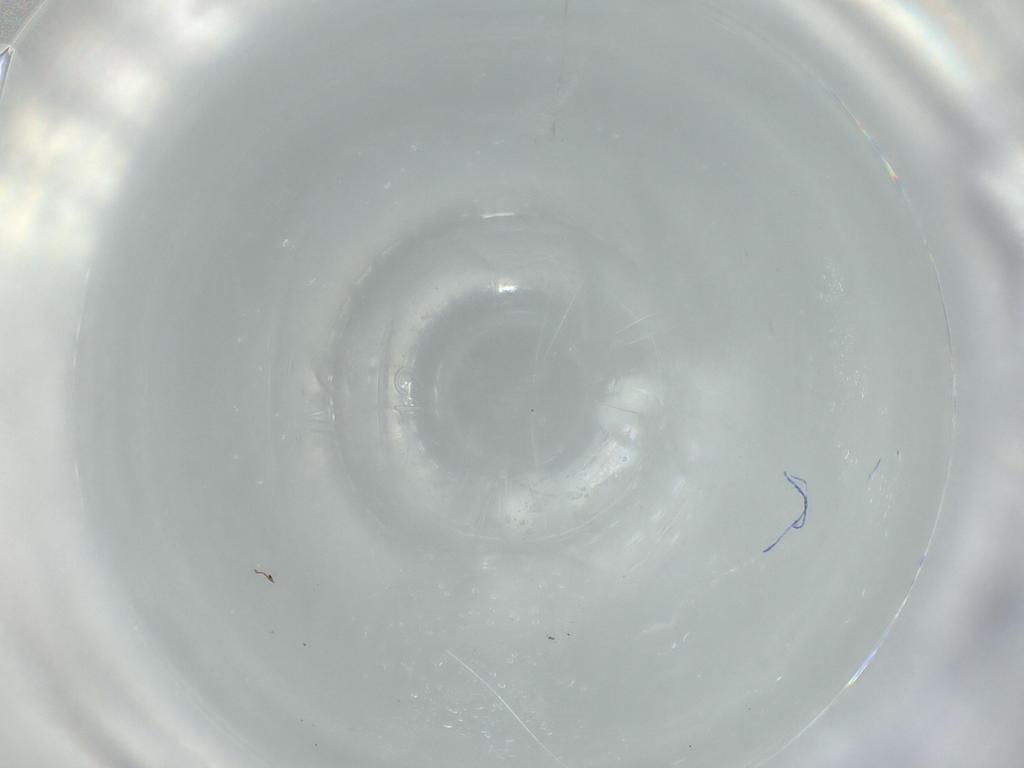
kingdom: Animalia
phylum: Arthropoda
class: Insecta
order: Blattodea
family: Ectobiidae
